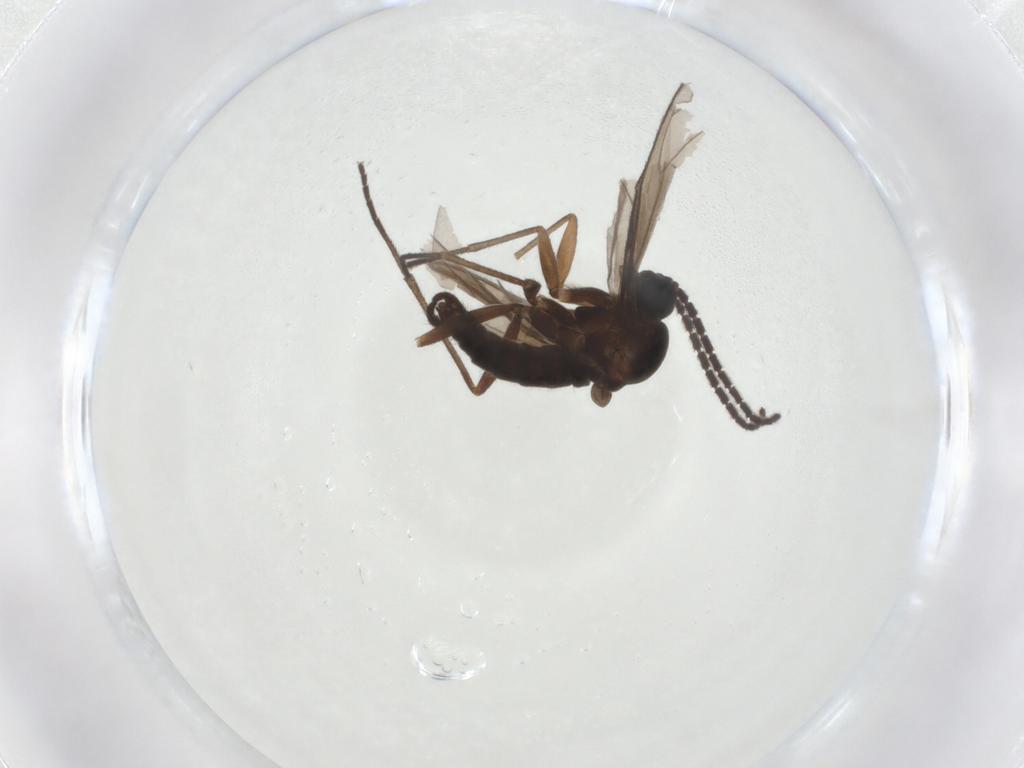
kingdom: Animalia
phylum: Arthropoda
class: Insecta
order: Diptera
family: Sciaridae
